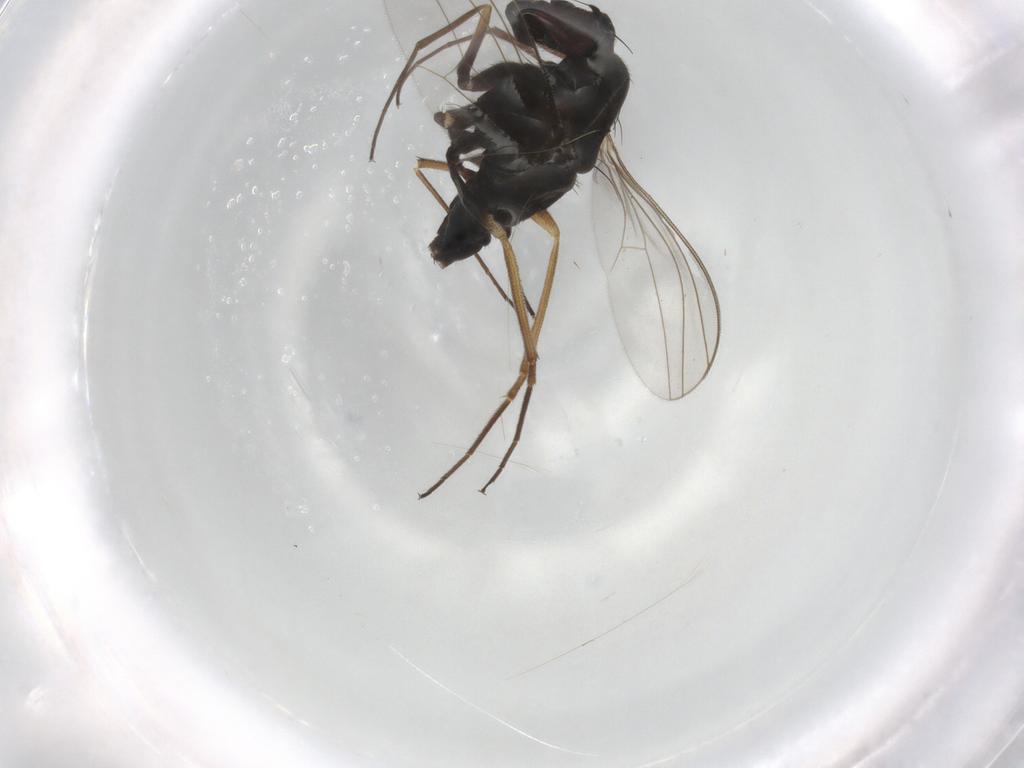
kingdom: Animalia
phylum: Arthropoda
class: Insecta
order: Diptera
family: Dolichopodidae
